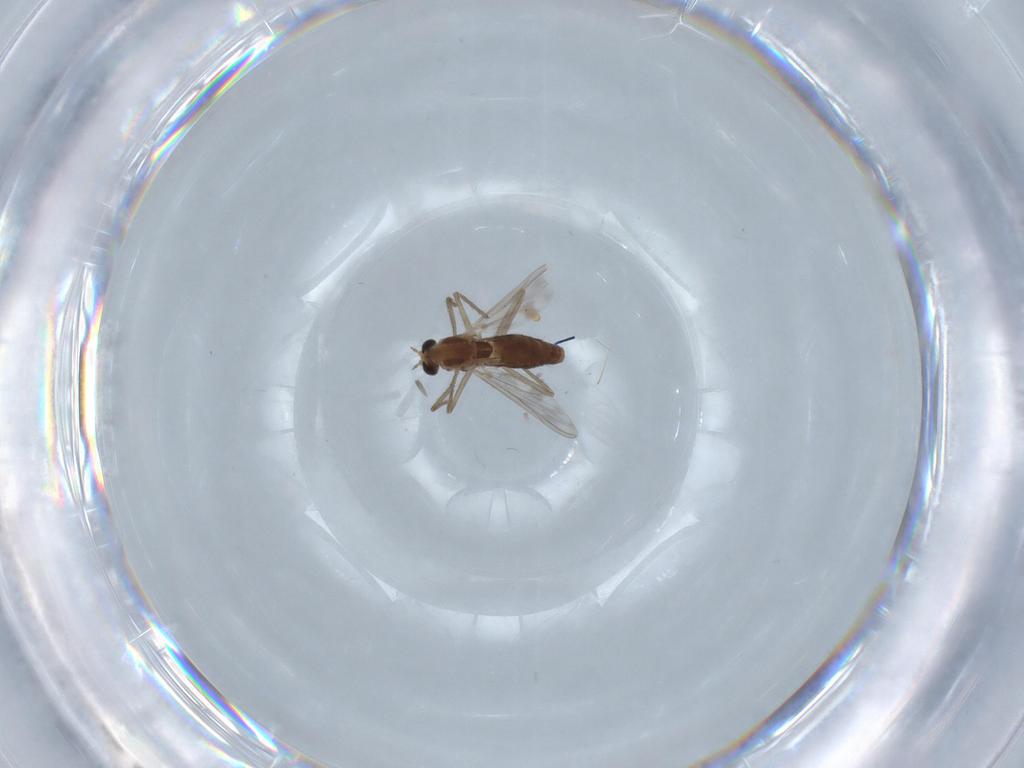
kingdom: Animalia
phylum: Arthropoda
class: Insecta
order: Diptera
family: Chironomidae
